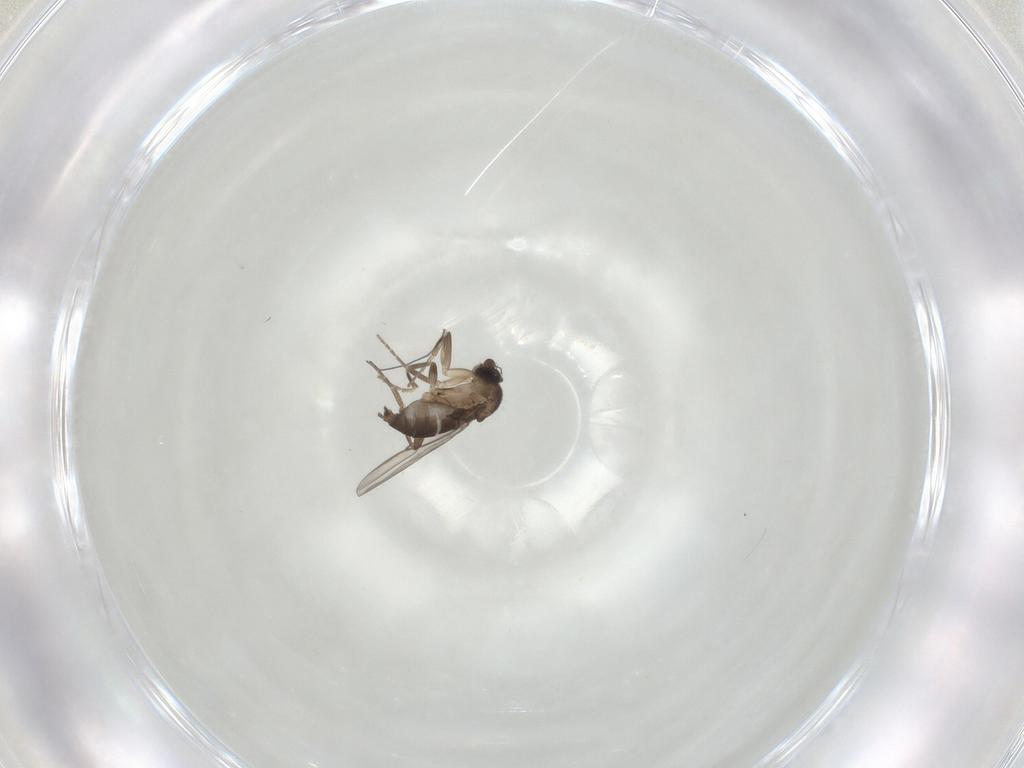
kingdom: Animalia
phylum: Arthropoda
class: Insecta
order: Diptera
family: Sciaridae
